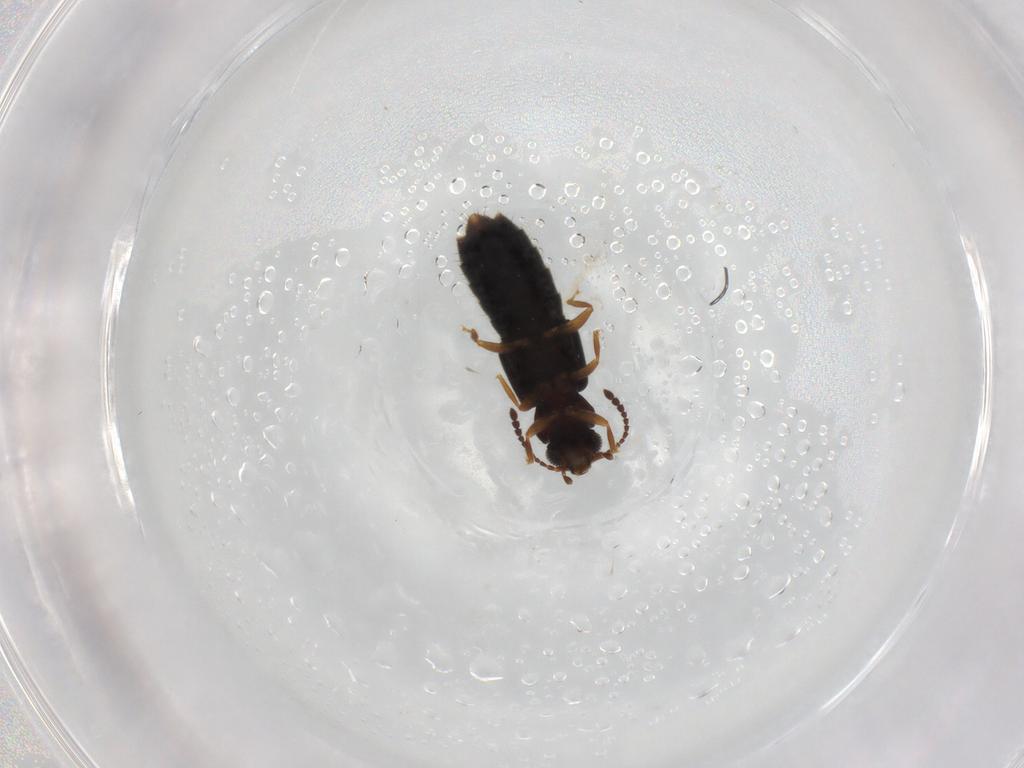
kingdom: Animalia
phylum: Arthropoda
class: Insecta
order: Coleoptera
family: Staphylinidae
